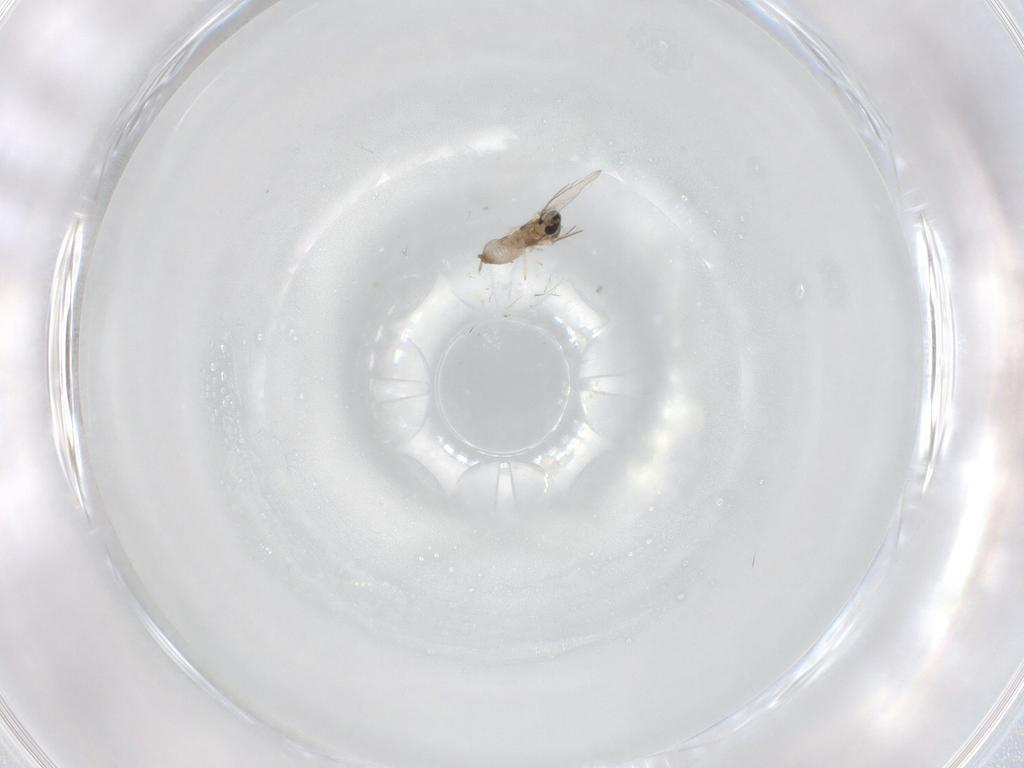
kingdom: Animalia
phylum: Arthropoda
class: Insecta
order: Diptera
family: Cecidomyiidae
